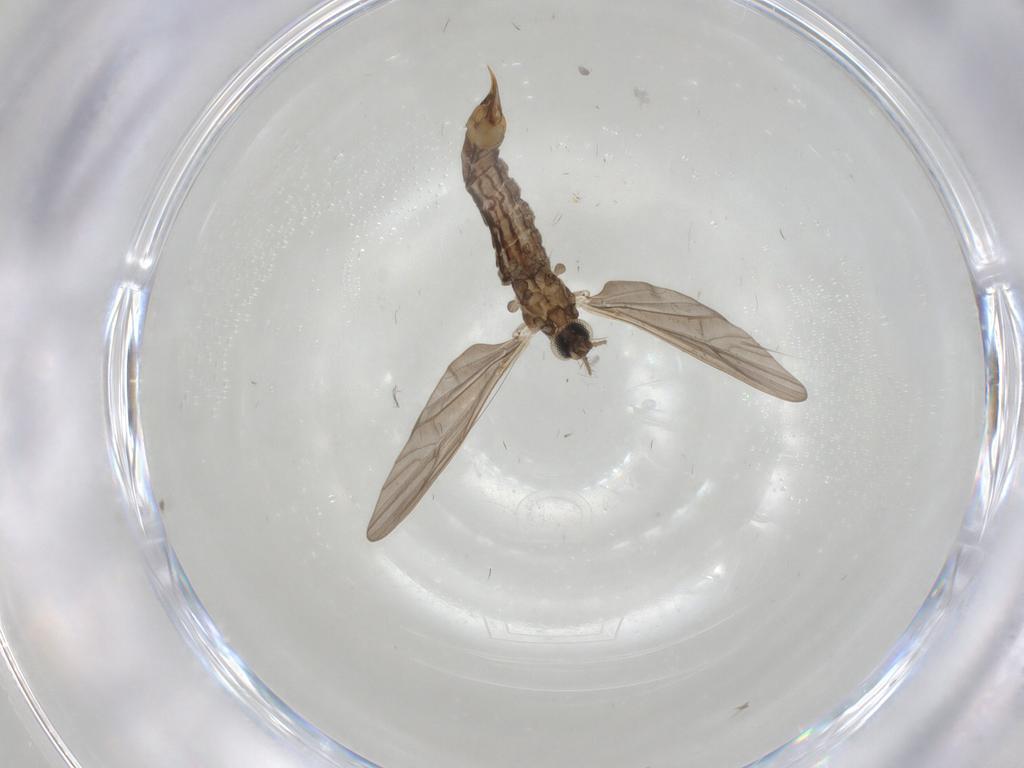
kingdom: Animalia
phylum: Arthropoda
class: Insecta
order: Diptera
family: Limoniidae
